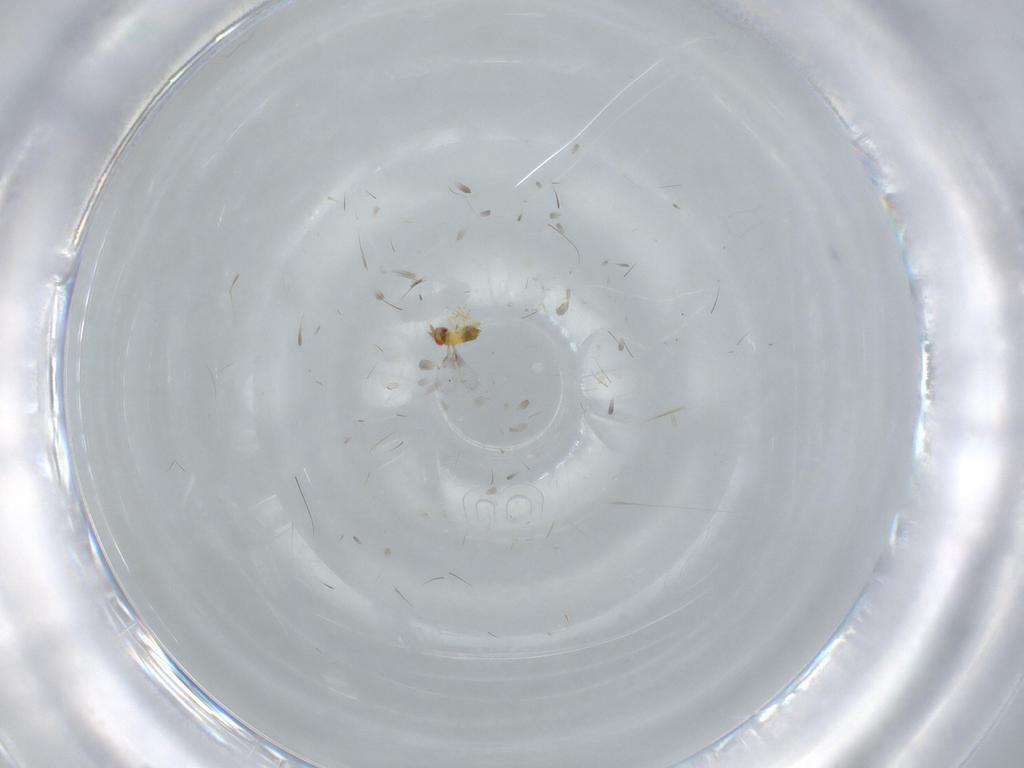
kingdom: Animalia
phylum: Arthropoda
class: Insecta
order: Hymenoptera
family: Trichogrammatidae
